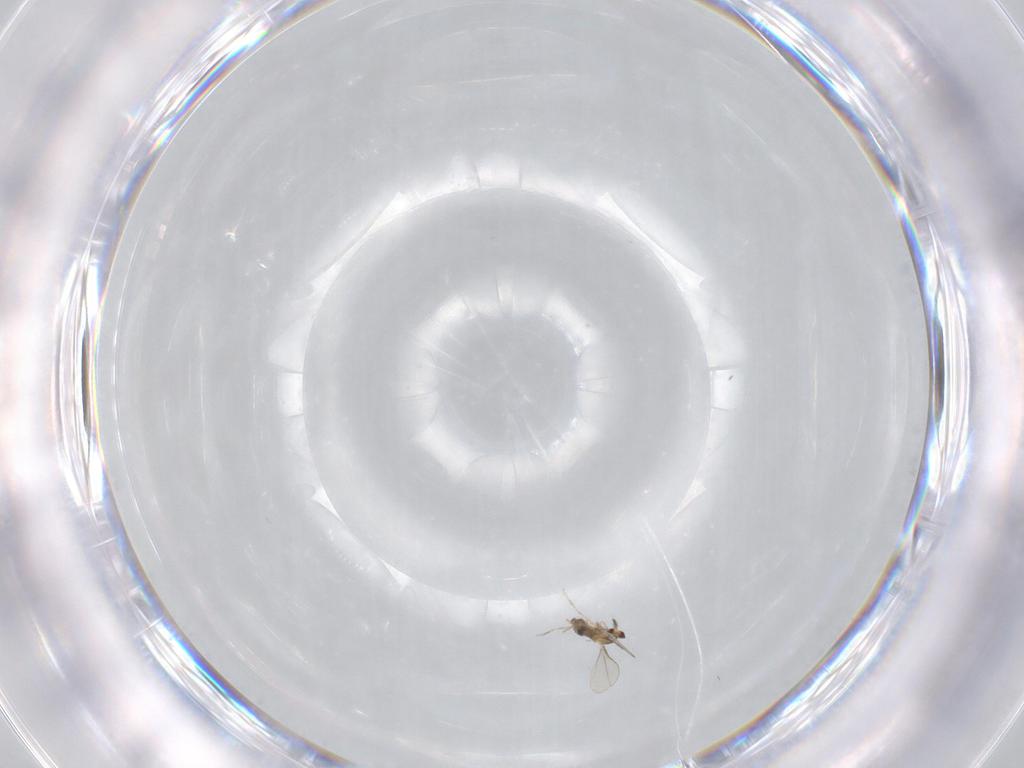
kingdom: Animalia
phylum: Arthropoda
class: Insecta
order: Diptera
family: Cecidomyiidae
